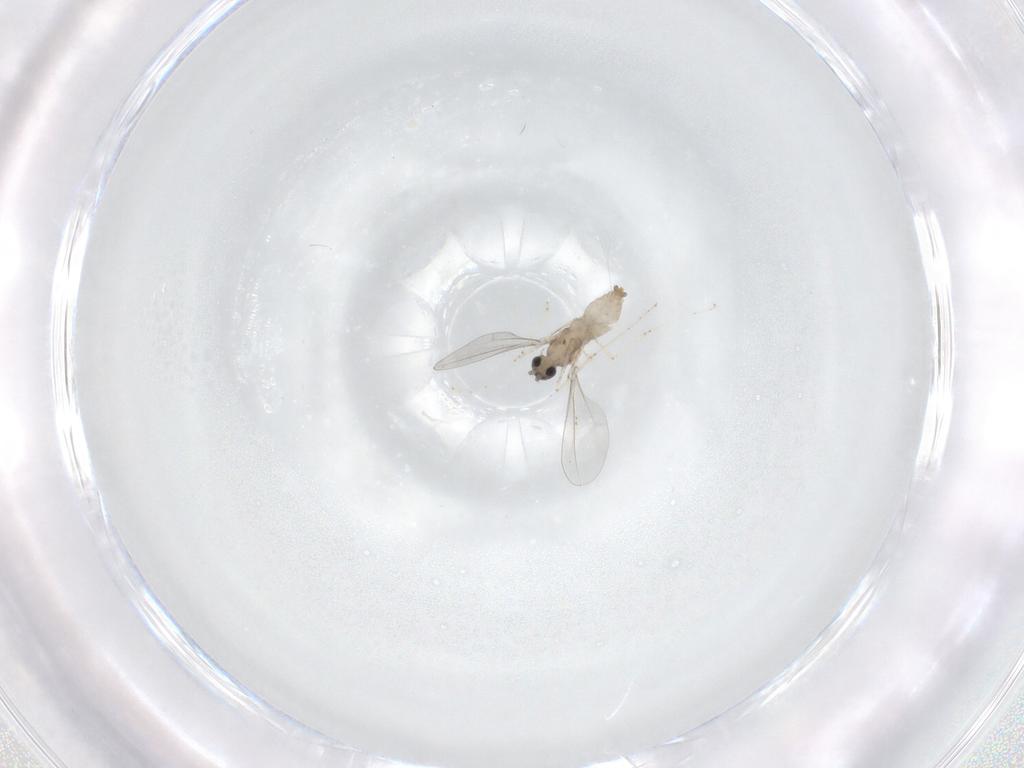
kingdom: Animalia
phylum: Arthropoda
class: Insecta
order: Diptera
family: Cecidomyiidae
